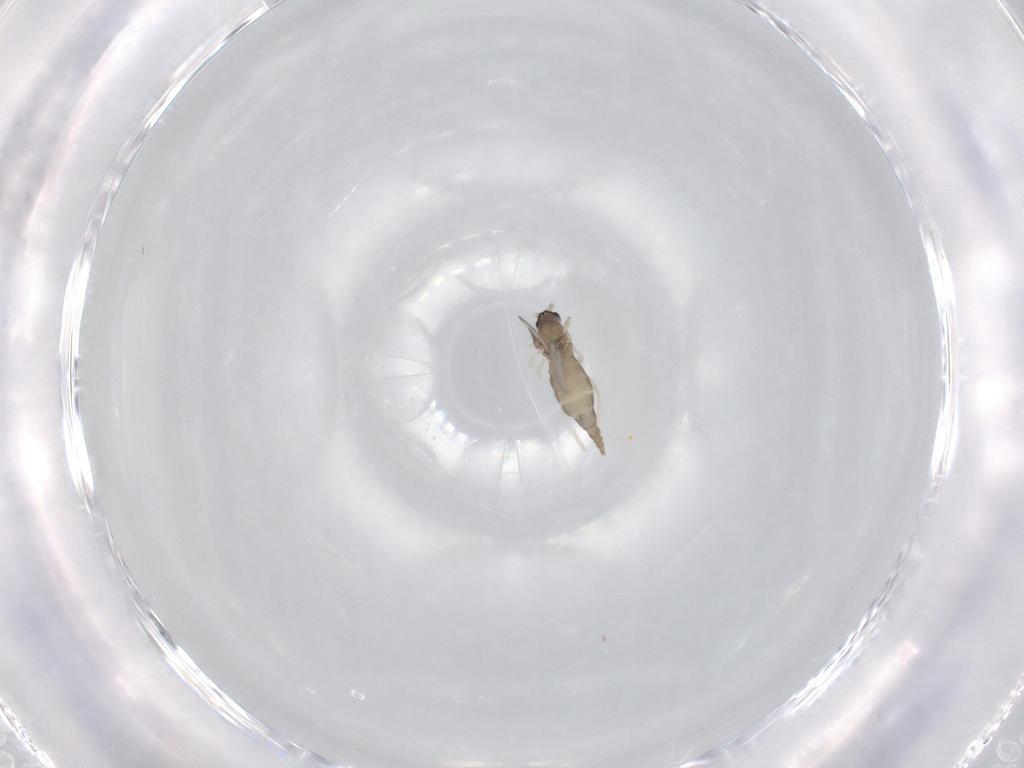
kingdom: Animalia
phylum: Arthropoda
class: Insecta
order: Diptera
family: Cecidomyiidae
